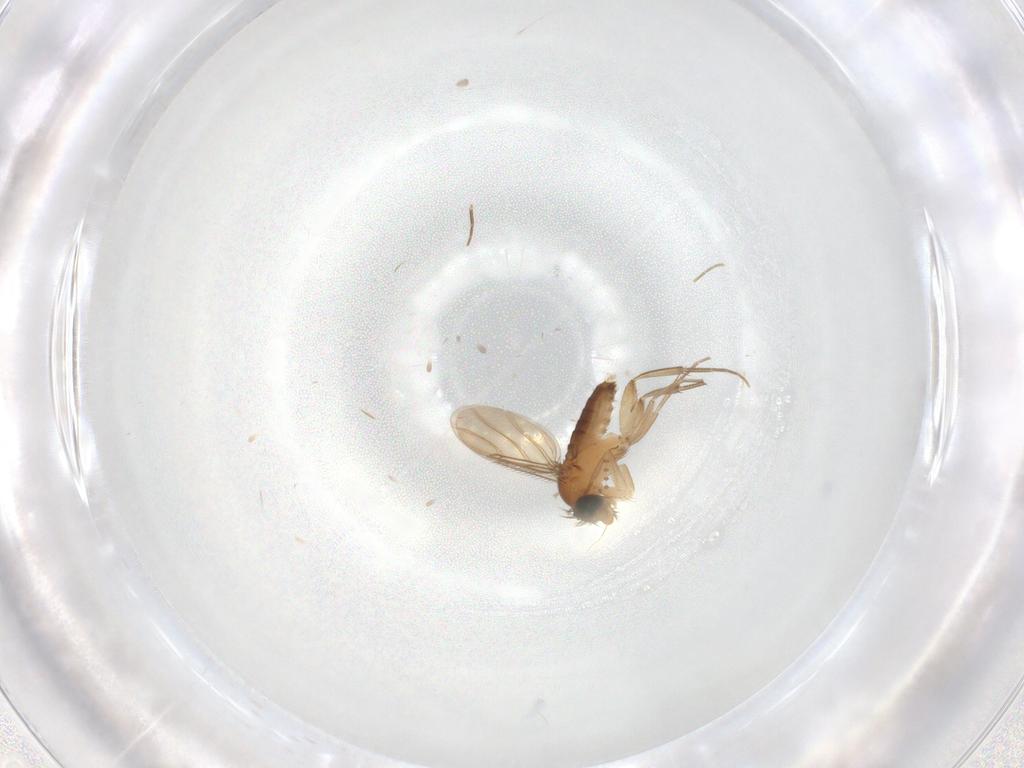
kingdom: Animalia
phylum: Arthropoda
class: Insecta
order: Diptera
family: Phoridae
